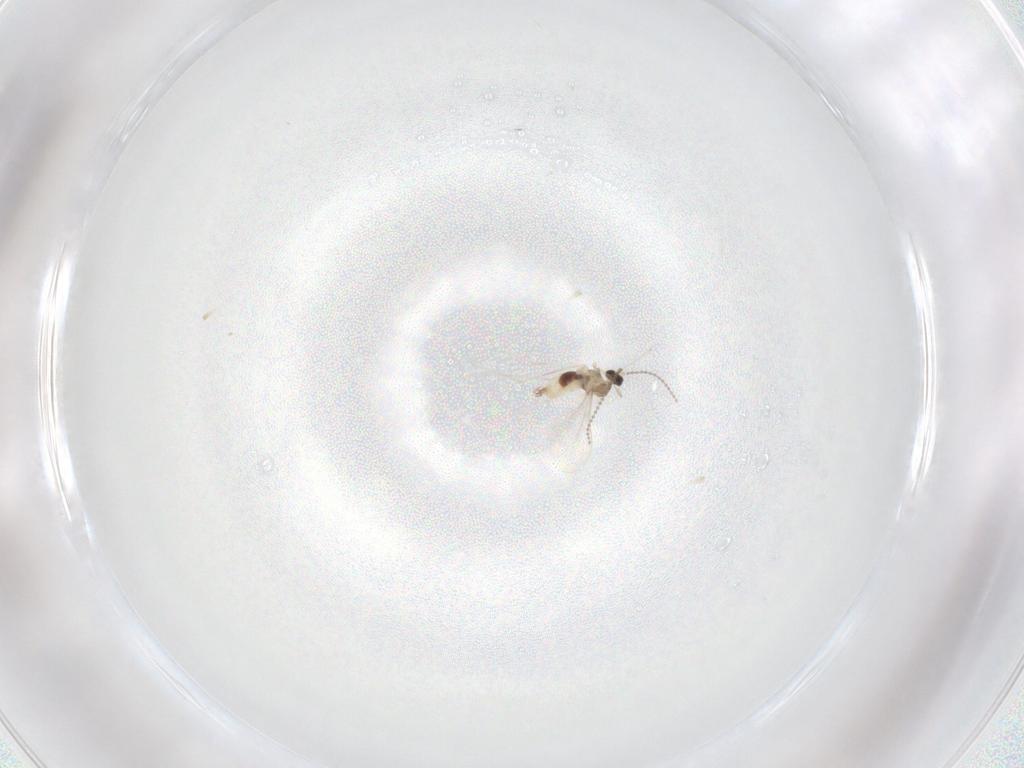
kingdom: Animalia
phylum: Arthropoda
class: Insecta
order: Diptera
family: Cecidomyiidae
